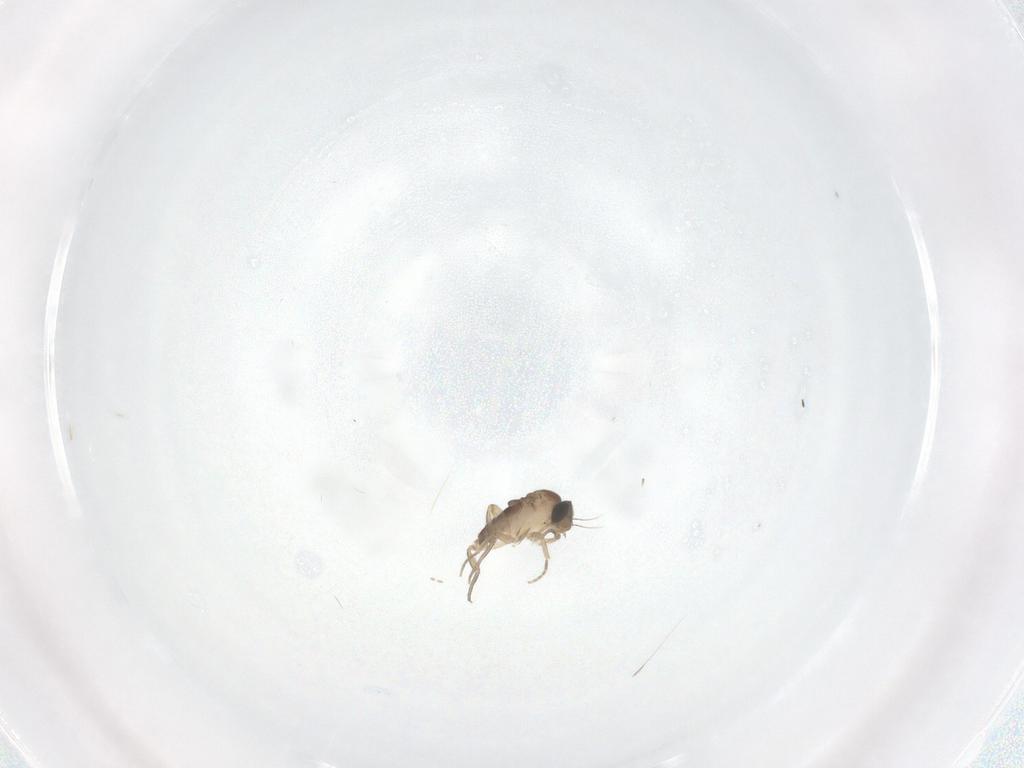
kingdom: Animalia
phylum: Arthropoda
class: Insecta
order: Diptera
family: Phoridae
